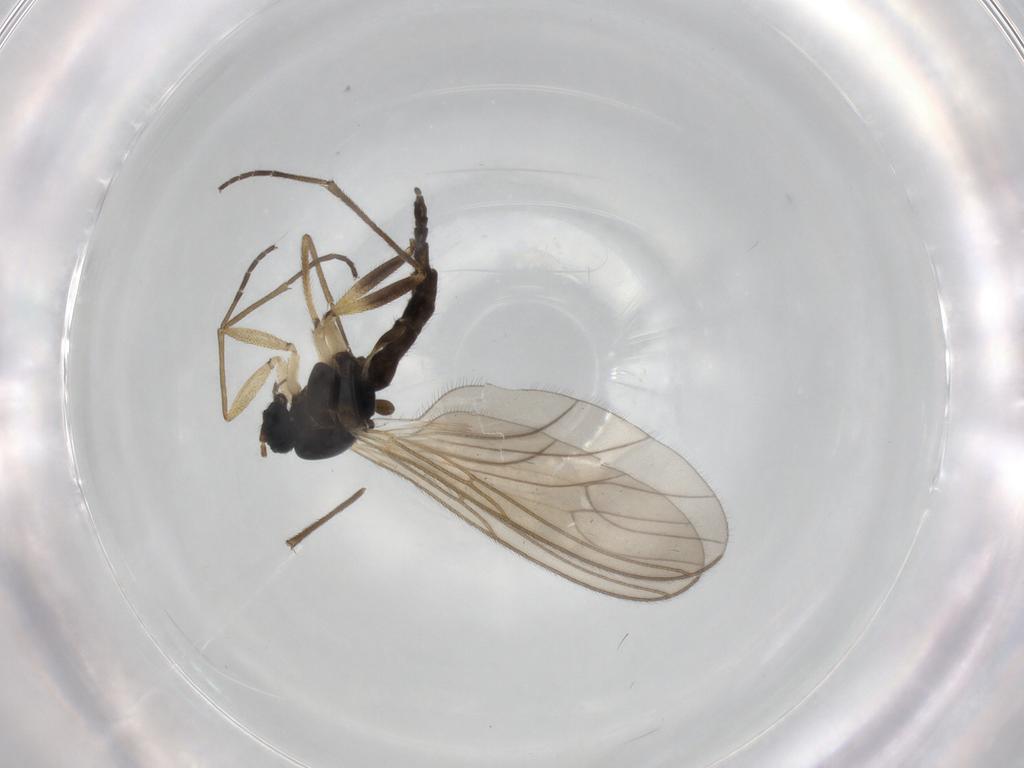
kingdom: Animalia
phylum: Arthropoda
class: Insecta
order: Diptera
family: Sciaridae
